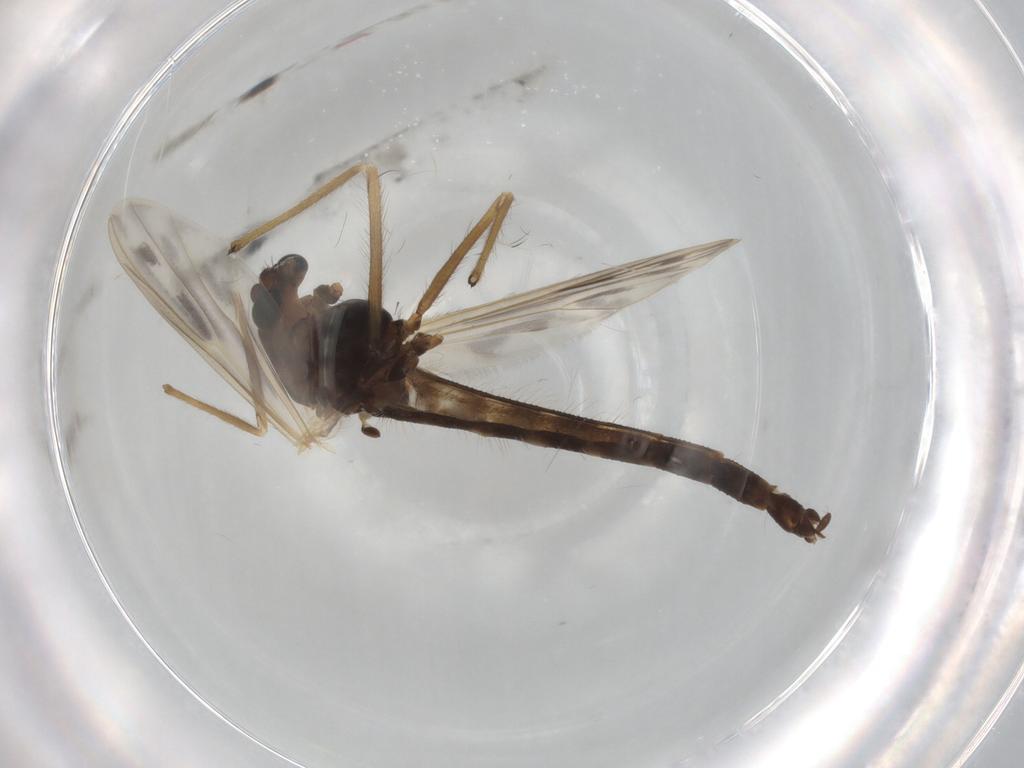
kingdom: Animalia
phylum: Arthropoda
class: Insecta
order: Diptera
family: Phoridae
